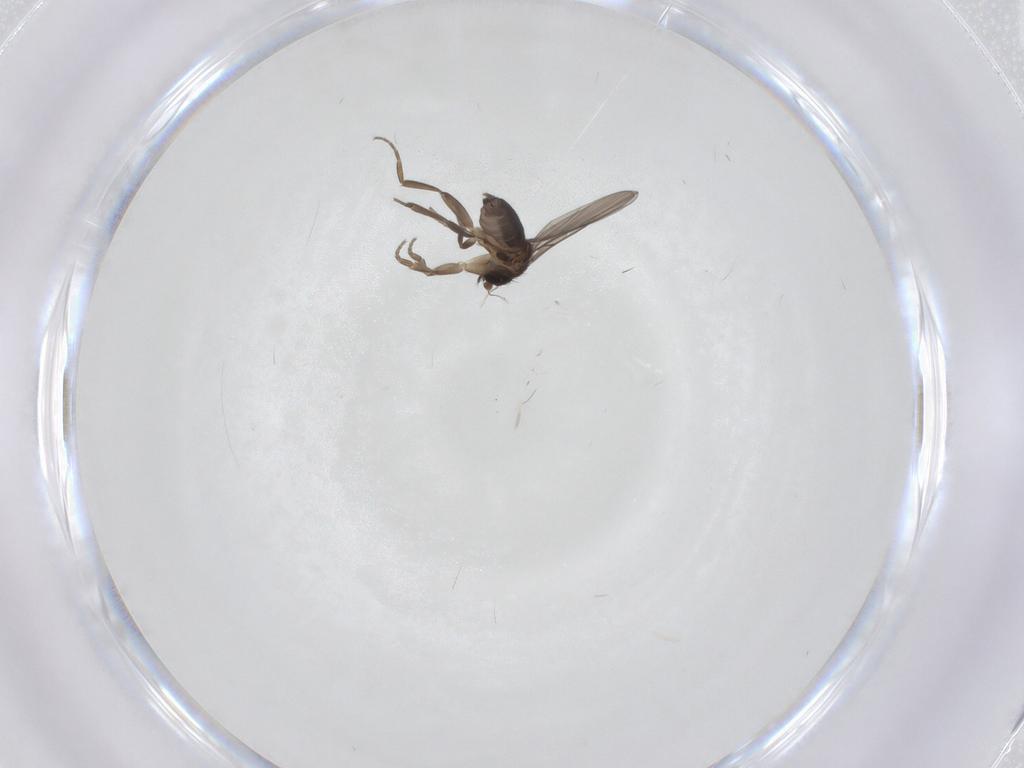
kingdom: Animalia
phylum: Arthropoda
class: Insecta
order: Diptera
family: Phoridae
